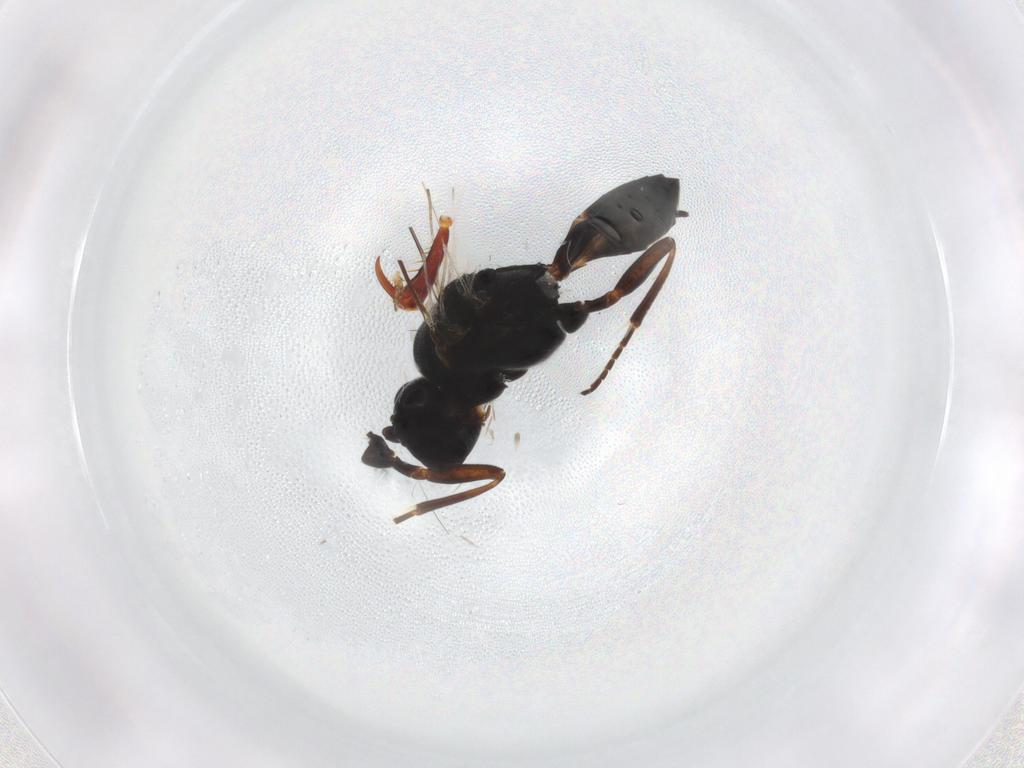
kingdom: Animalia
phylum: Arthropoda
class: Insecta
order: Hymenoptera
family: Braconidae
